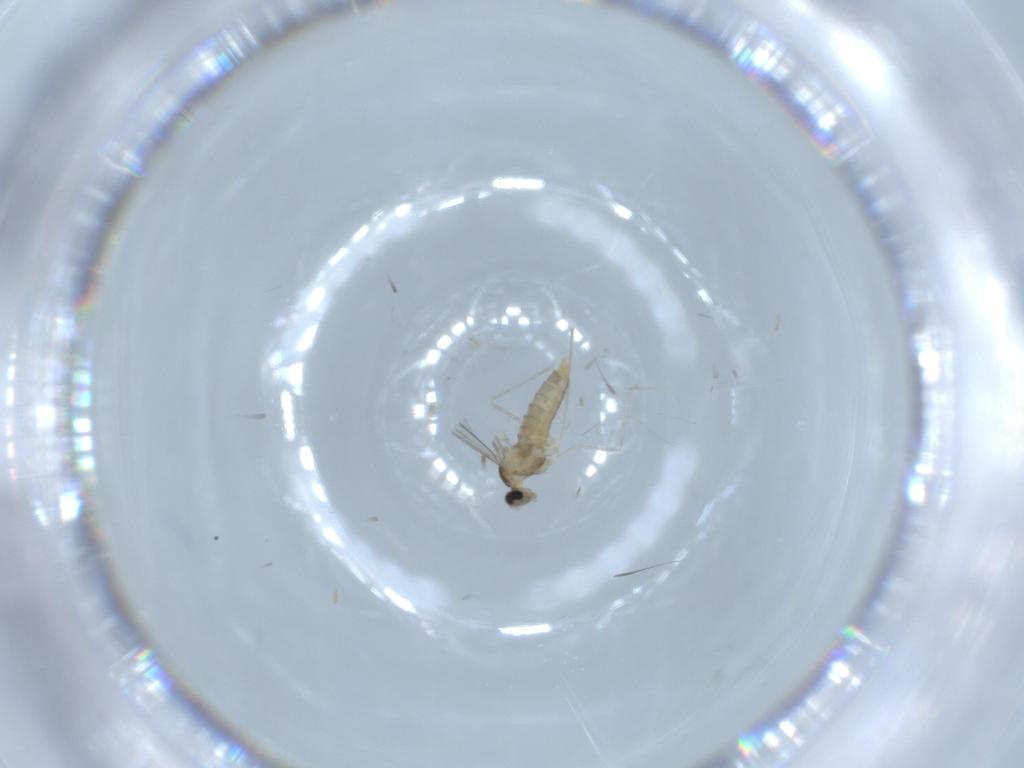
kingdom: Animalia
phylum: Arthropoda
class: Insecta
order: Diptera
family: Cecidomyiidae
